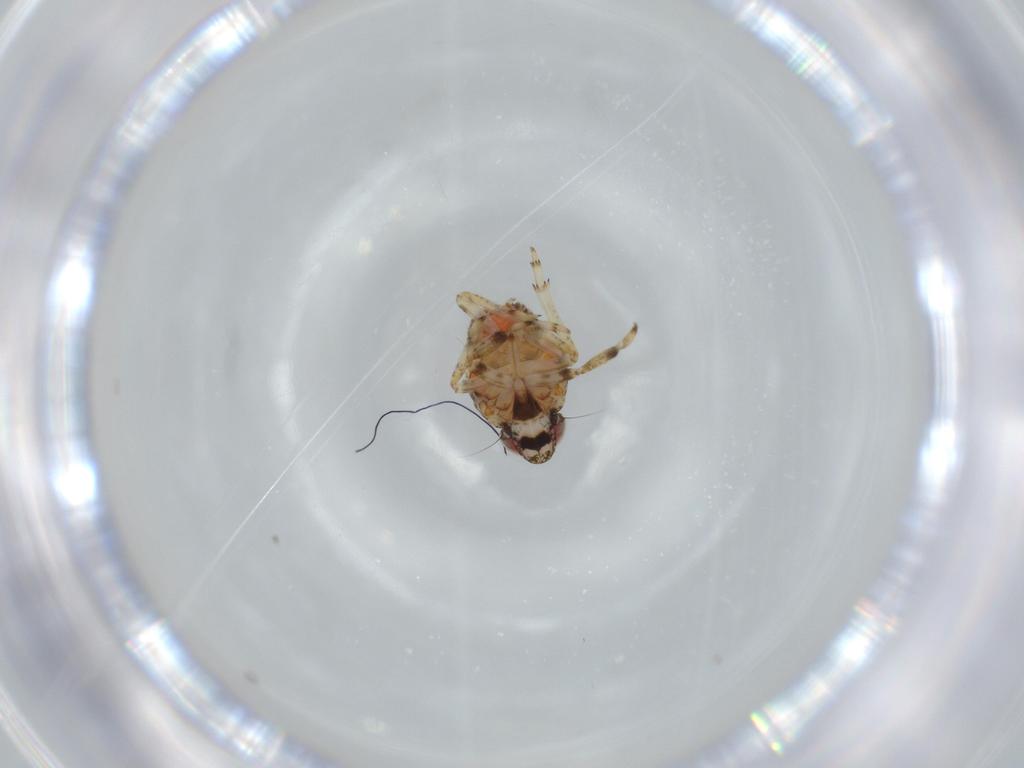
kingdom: Animalia
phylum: Arthropoda
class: Insecta
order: Hemiptera
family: Issidae
